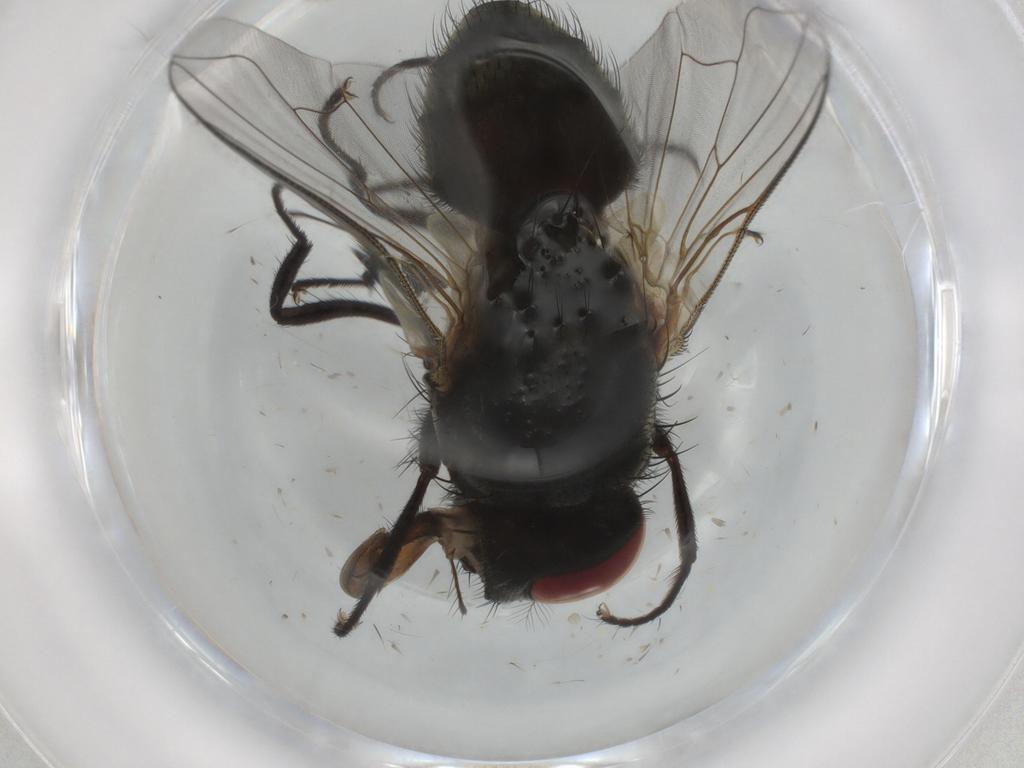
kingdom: Animalia
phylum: Arthropoda
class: Insecta
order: Diptera
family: Muscidae
